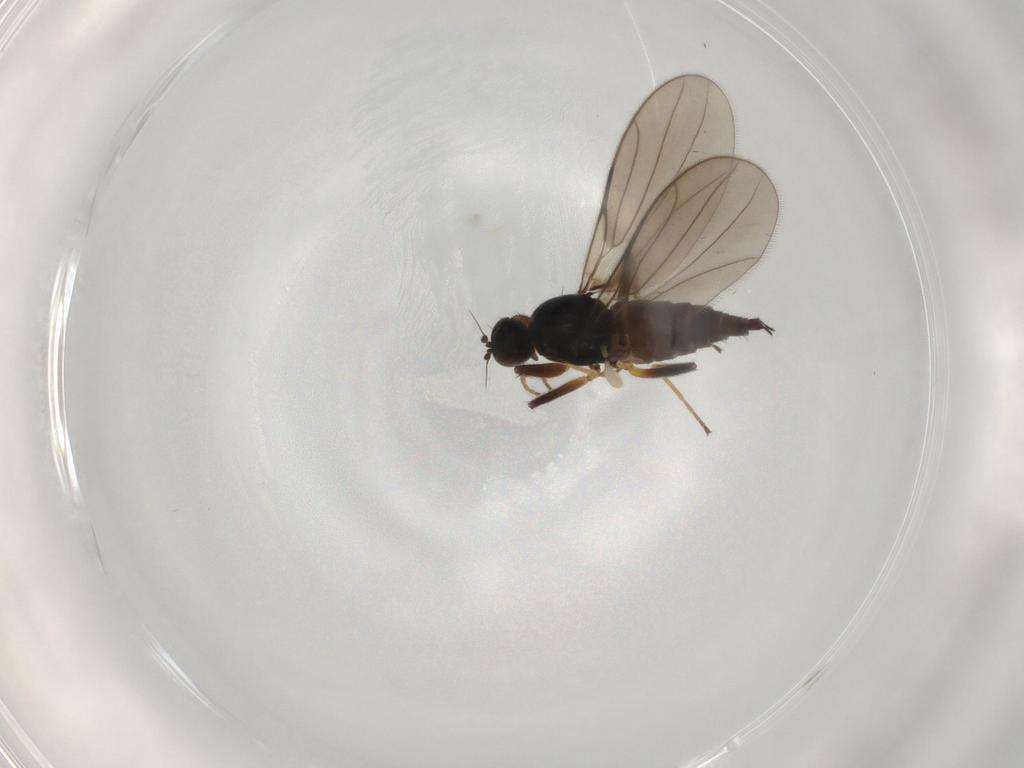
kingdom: Animalia
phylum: Arthropoda
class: Insecta
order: Diptera
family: Hybotidae
